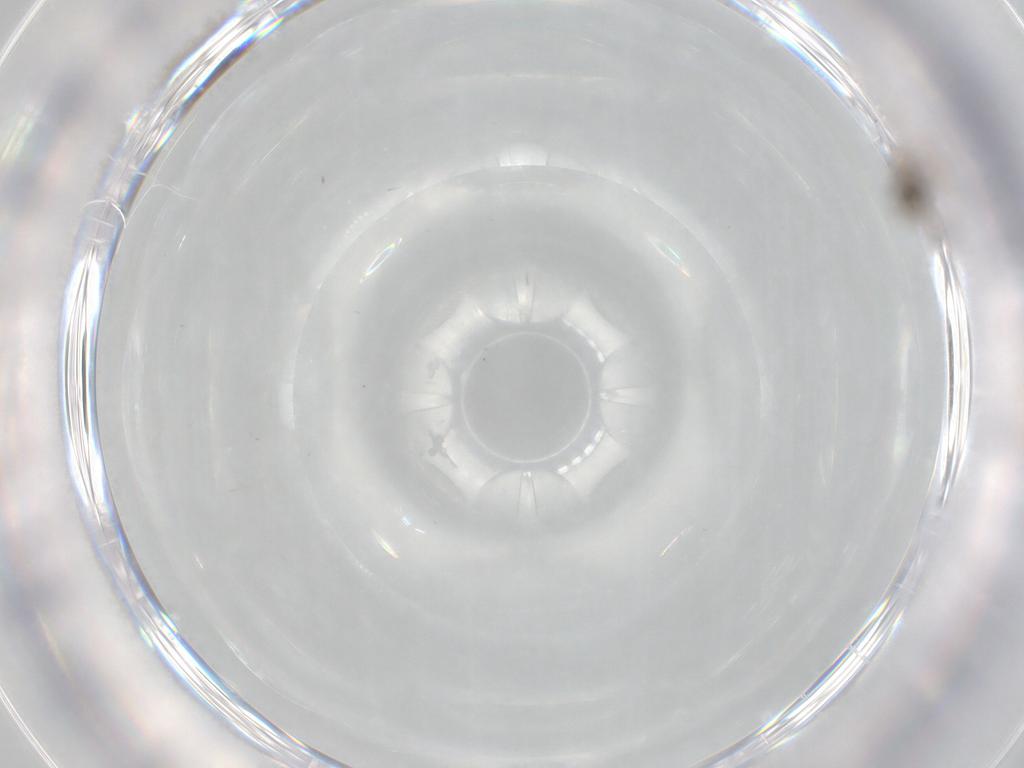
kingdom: Animalia
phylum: Arthropoda
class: Insecta
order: Diptera
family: Cecidomyiidae
